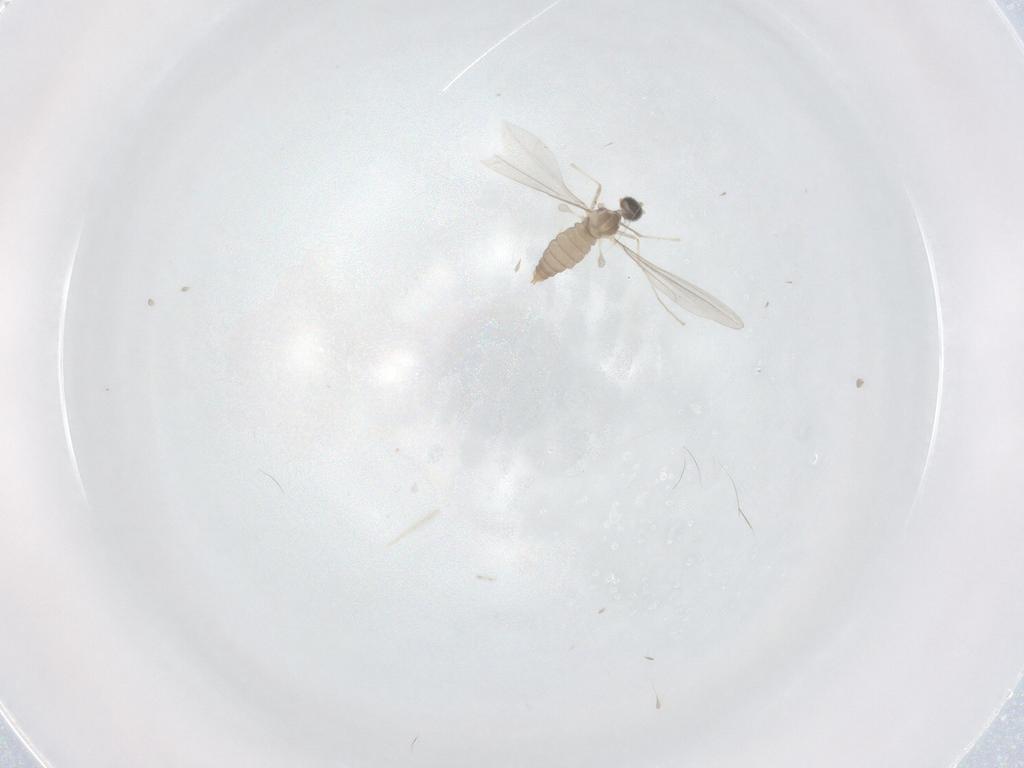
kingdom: Animalia
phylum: Arthropoda
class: Insecta
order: Diptera
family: Cecidomyiidae
